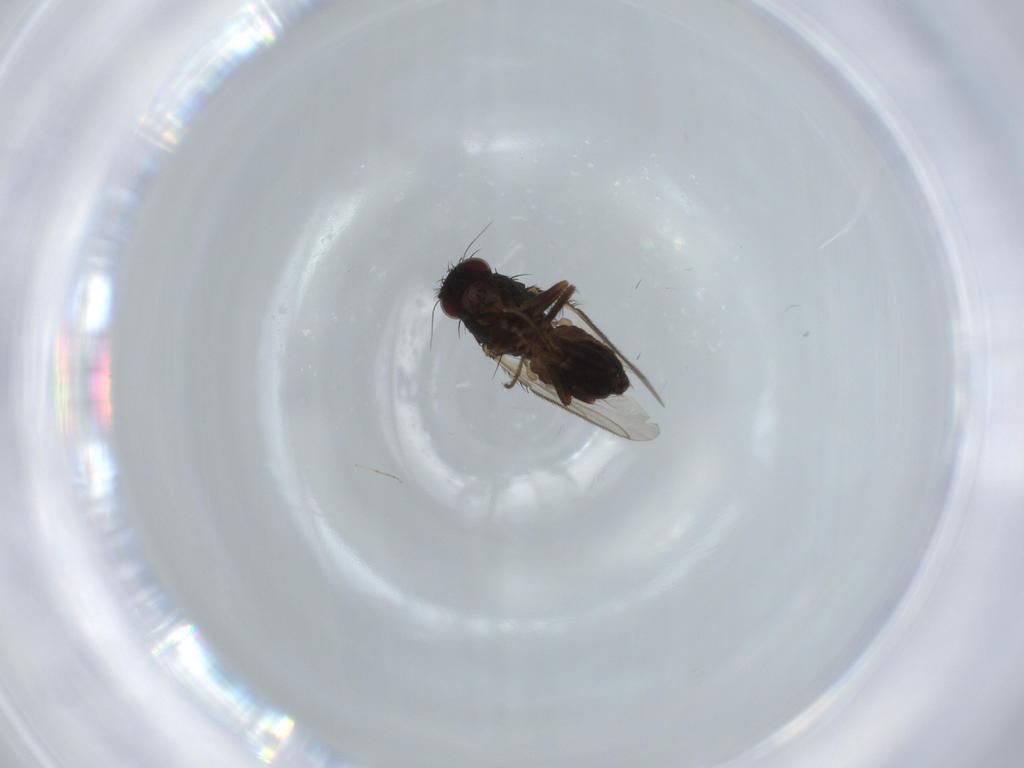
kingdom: Animalia
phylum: Arthropoda
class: Insecta
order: Diptera
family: Sphaeroceridae
